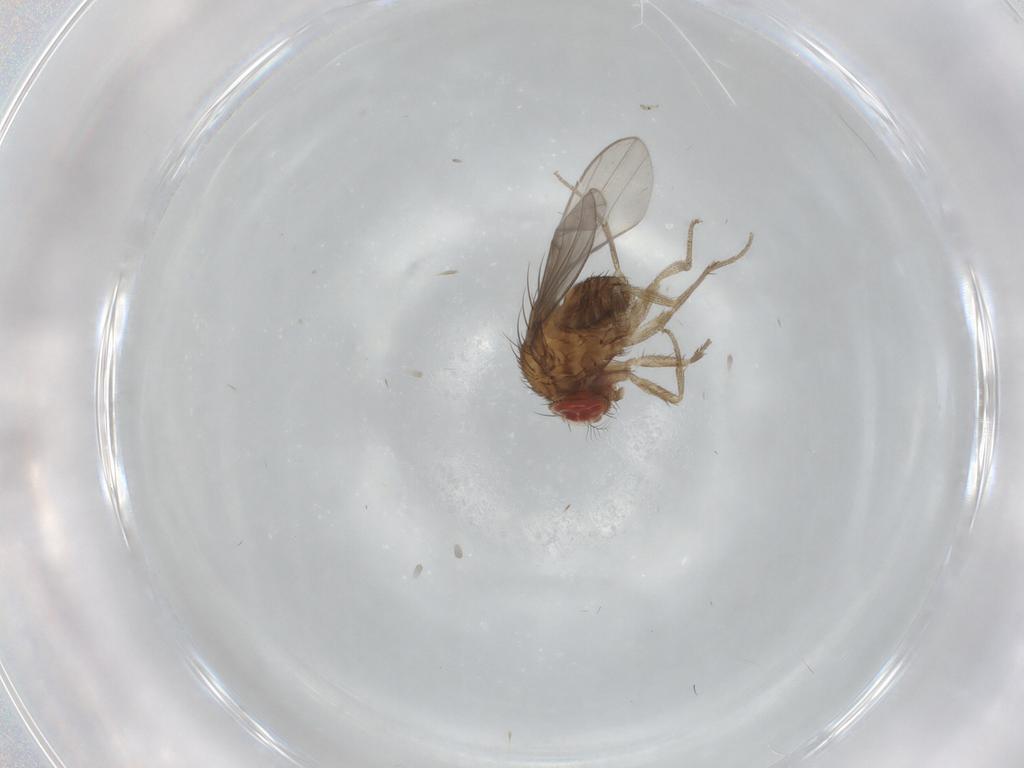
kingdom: Animalia
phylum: Arthropoda
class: Insecta
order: Diptera
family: Drosophilidae
